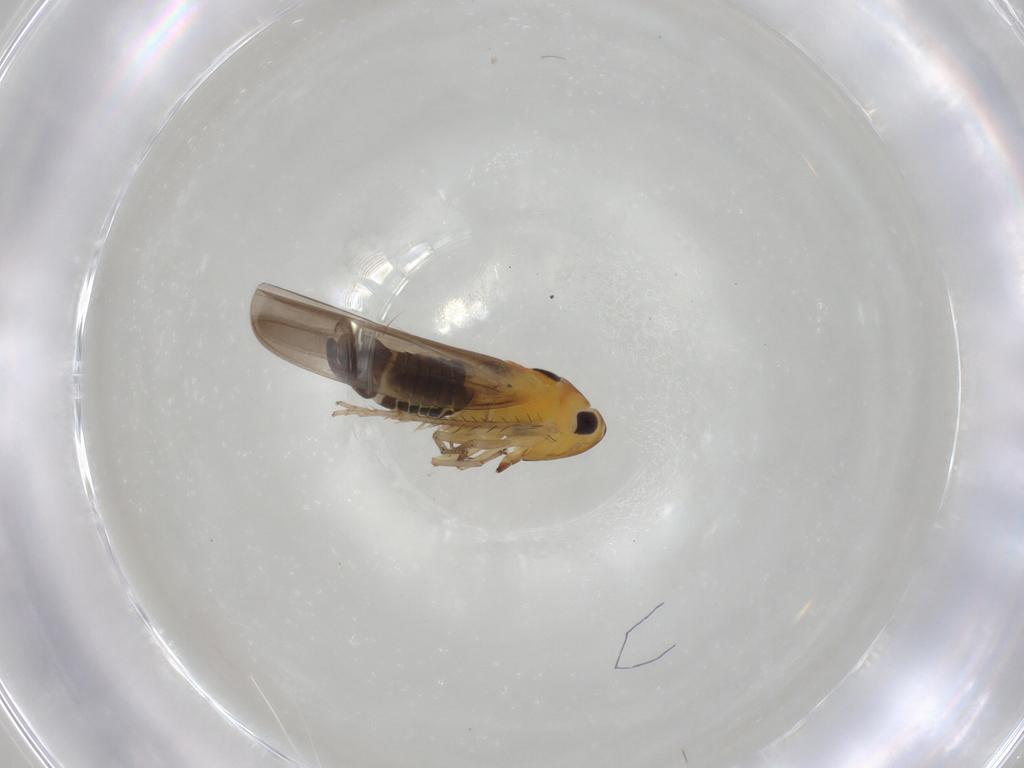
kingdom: Animalia
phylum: Arthropoda
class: Insecta
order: Hemiptera
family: Cicadellidae
